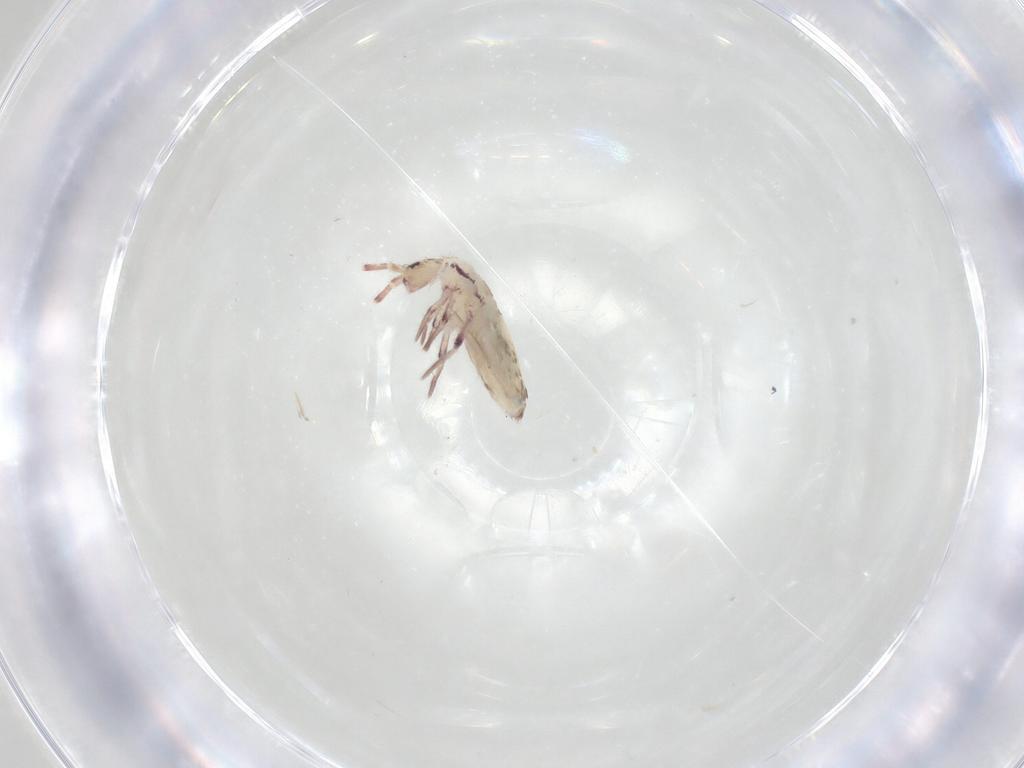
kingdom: Animalia
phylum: Arthropoda
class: Collembola
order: Entomobryomorpha
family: Entomobryidae
